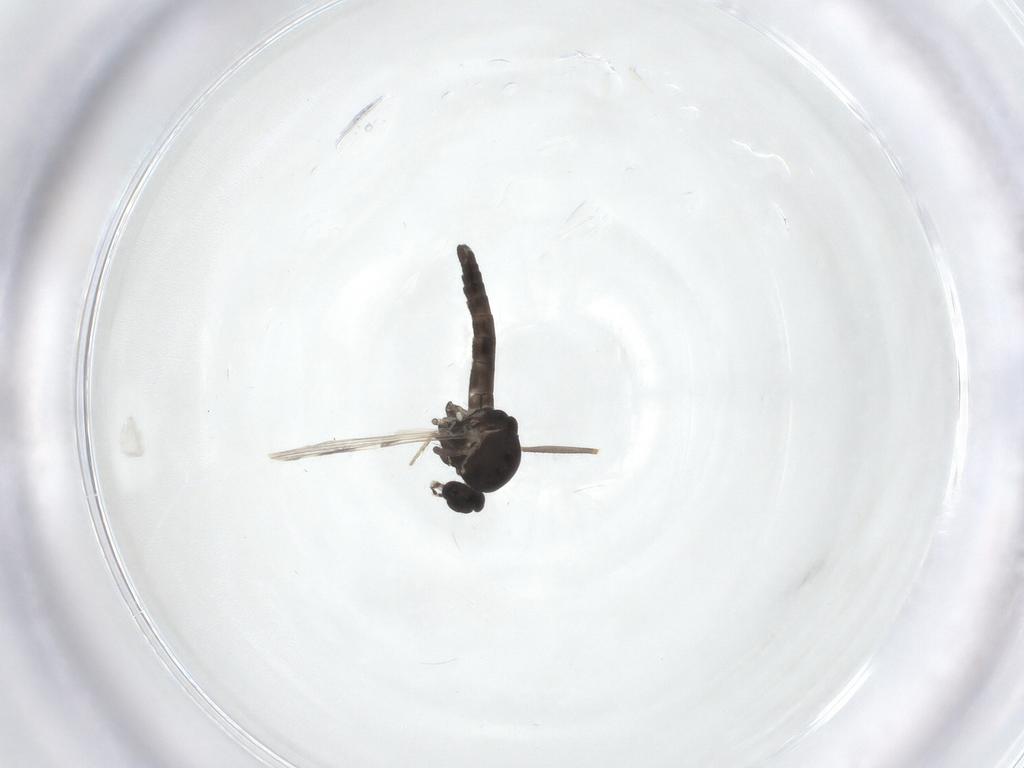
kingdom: Animalia
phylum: Arthropoda
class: Insecta
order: Diptera
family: Ceratopogonidae
